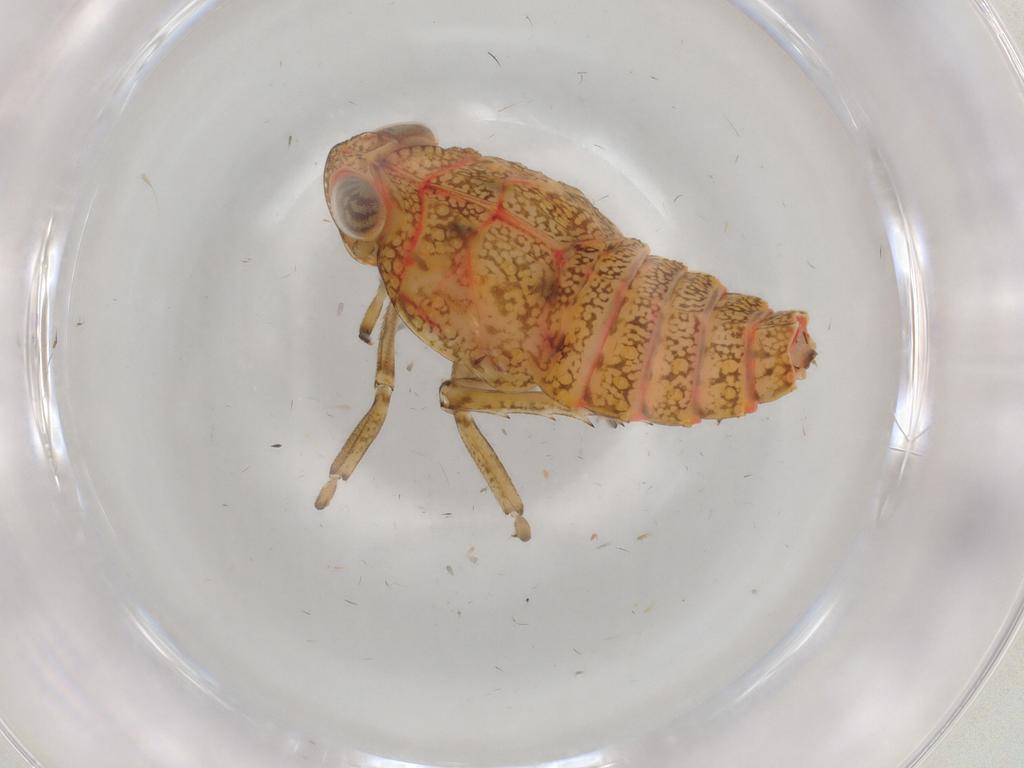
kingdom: Animalia
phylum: Arthropoda
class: Insecta
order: Hemiptera
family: Issidae
